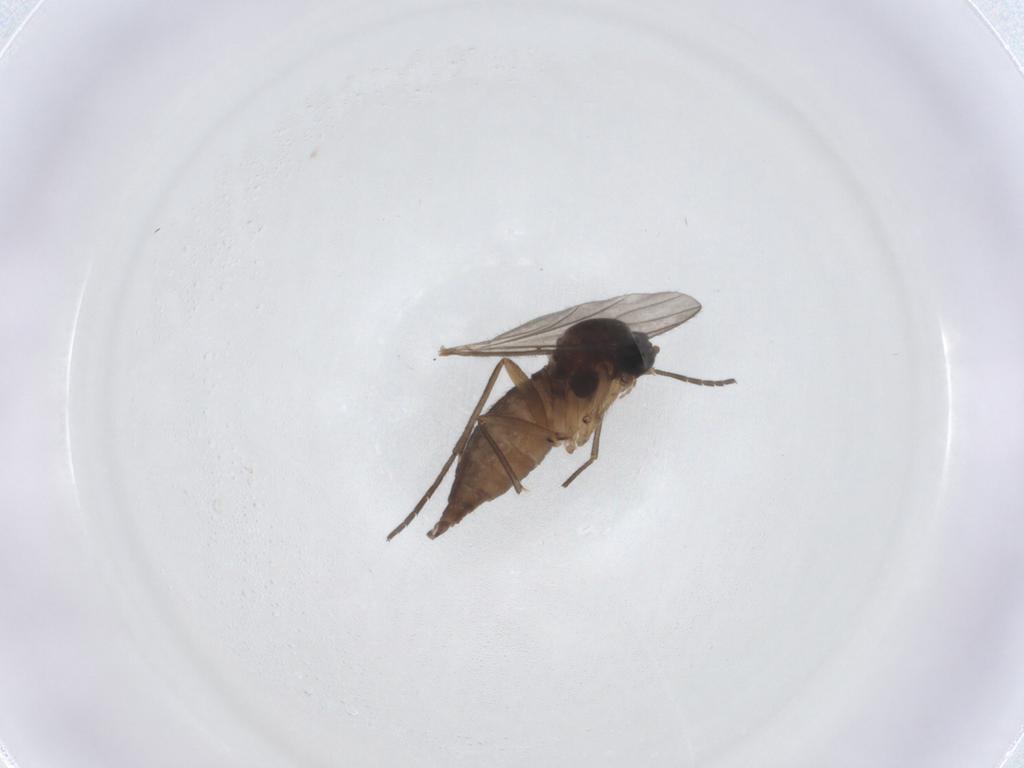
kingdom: Animalia
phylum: Arthropoda
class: Insecta
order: Diptera
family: Sciaridae
